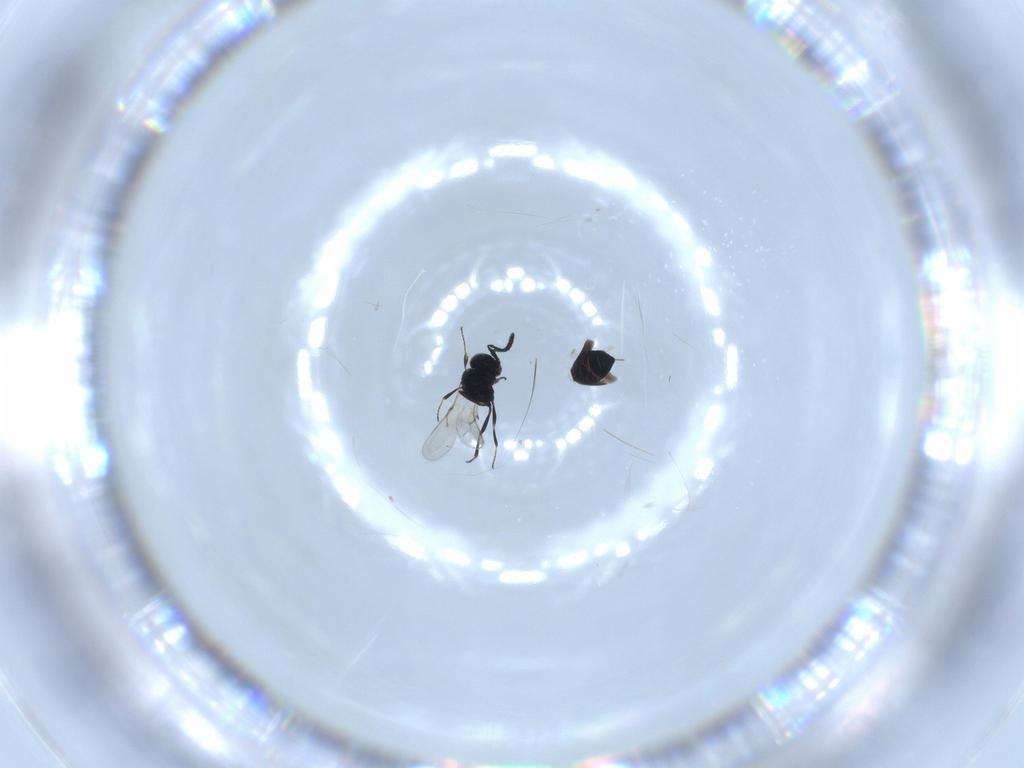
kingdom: Animalia
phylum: Arthropoda
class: Insecta
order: Hymenoptera
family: Scelionidae
